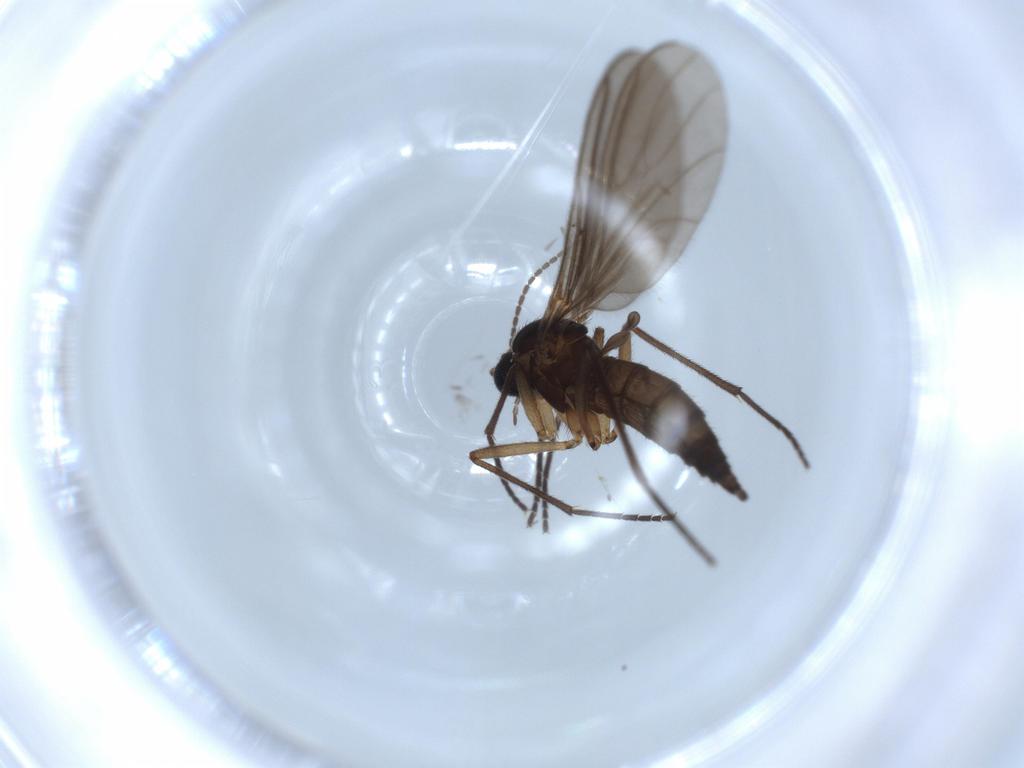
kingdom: Animalia
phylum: Arthropoda
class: Insecta
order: Diptera
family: Sciaridae
